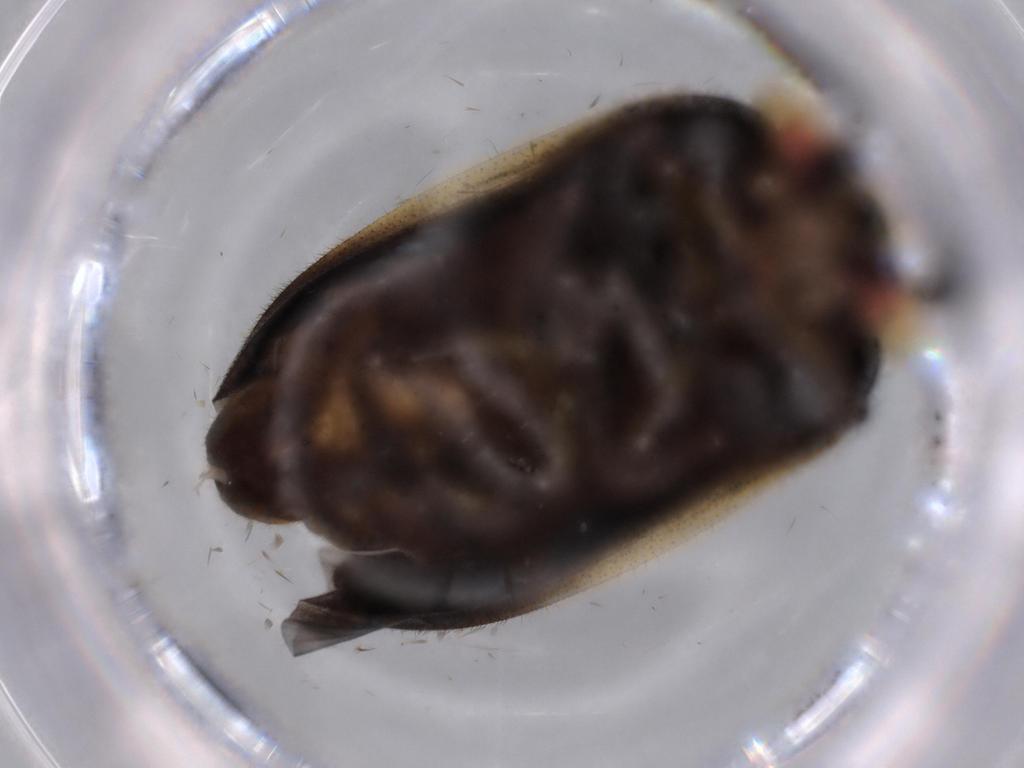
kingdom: Animalia
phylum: Arthropoda
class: Insecta
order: Coleoptera
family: Lampyridae
